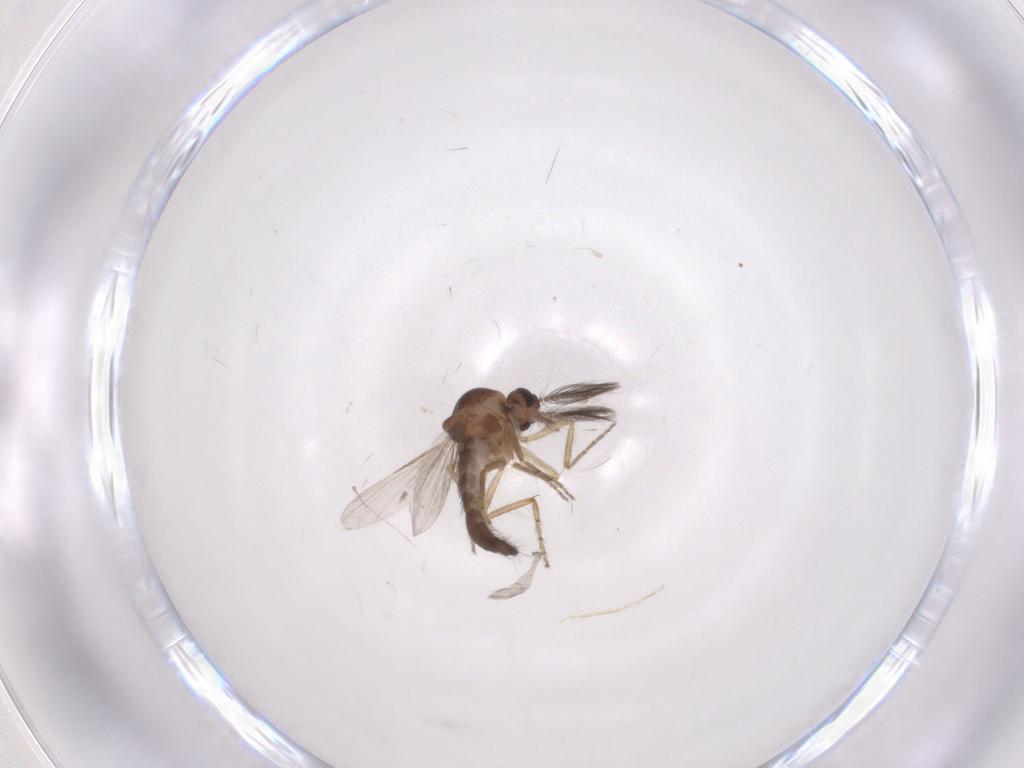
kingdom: Animalia
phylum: Arthropoda
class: Insecta
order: Diptera
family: Ceratopogonidae
